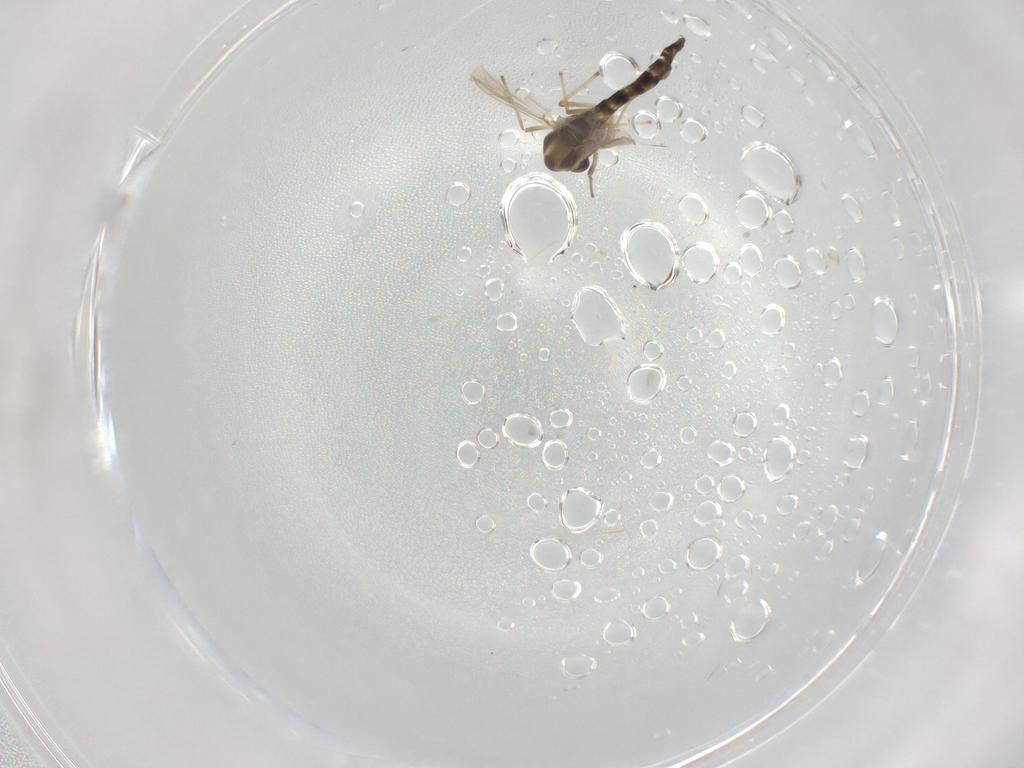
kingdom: Animalia
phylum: Arthropoda
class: Insecta
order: Diptera
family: Chironomidae
